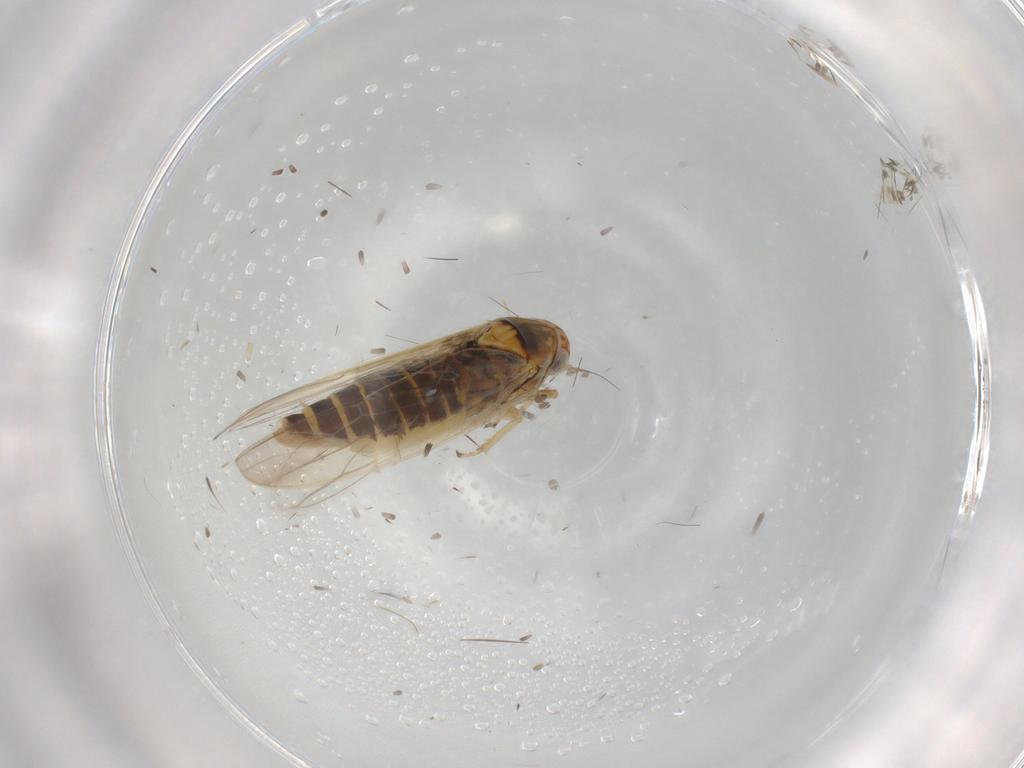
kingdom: Animalia
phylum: Arthropoda
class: Insecta
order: Hemiptera
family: Cicadellidae
